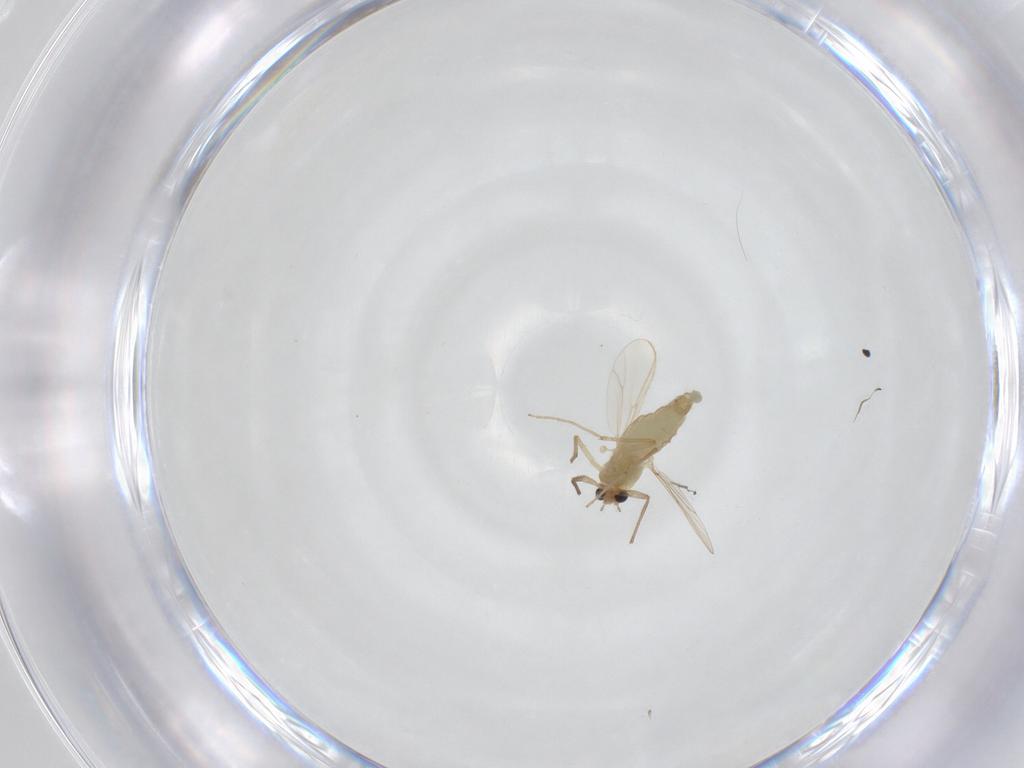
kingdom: Animalia
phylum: Arthropoda
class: Insecta
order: Diptera
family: Chironomidae
